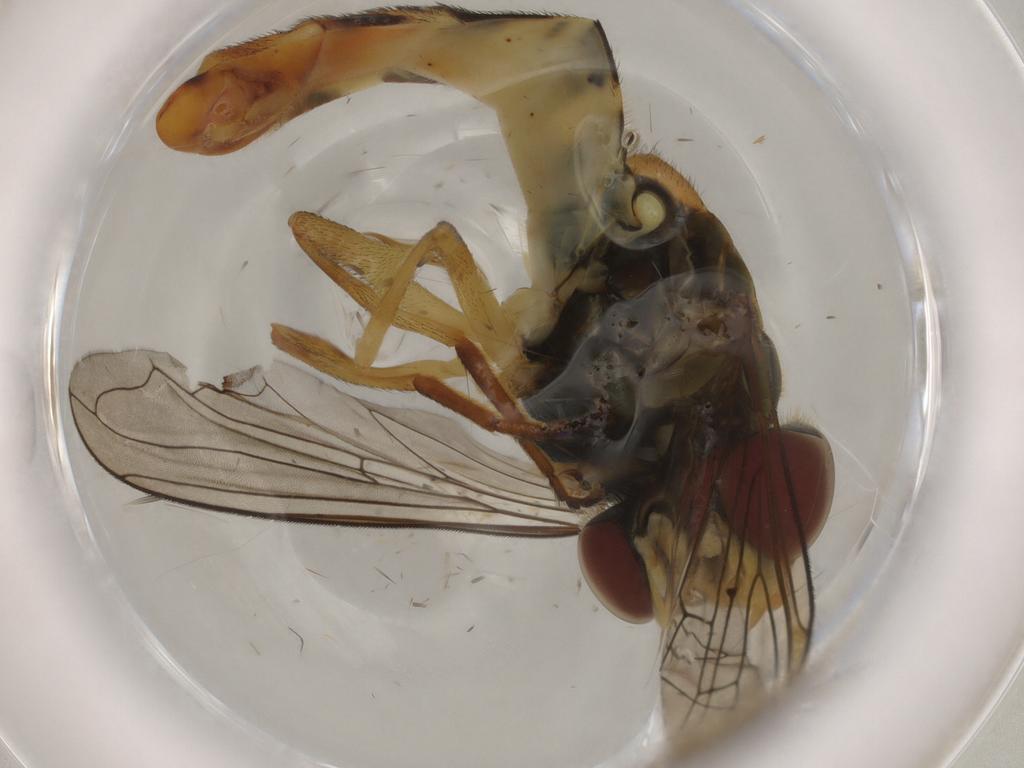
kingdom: Animalia
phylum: Arthropoda
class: Insecta
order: Diptera
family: Syrphidae
